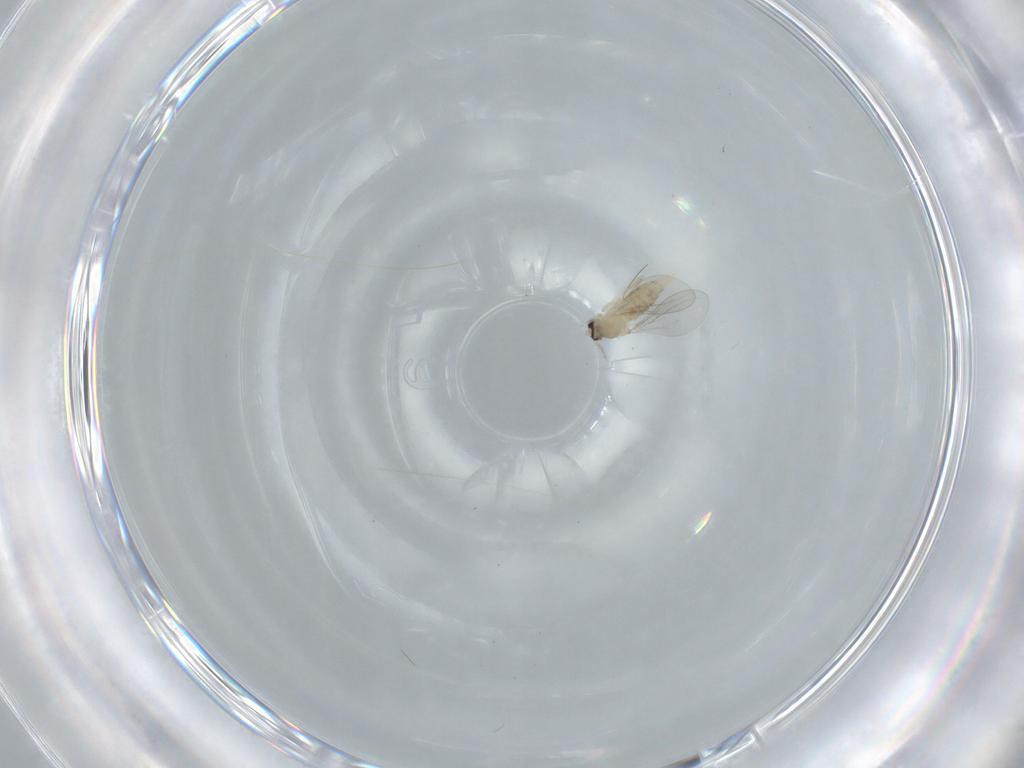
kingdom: Animalia
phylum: Arthropoda
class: Insecta
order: Diptera
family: Cecidomyiidae
